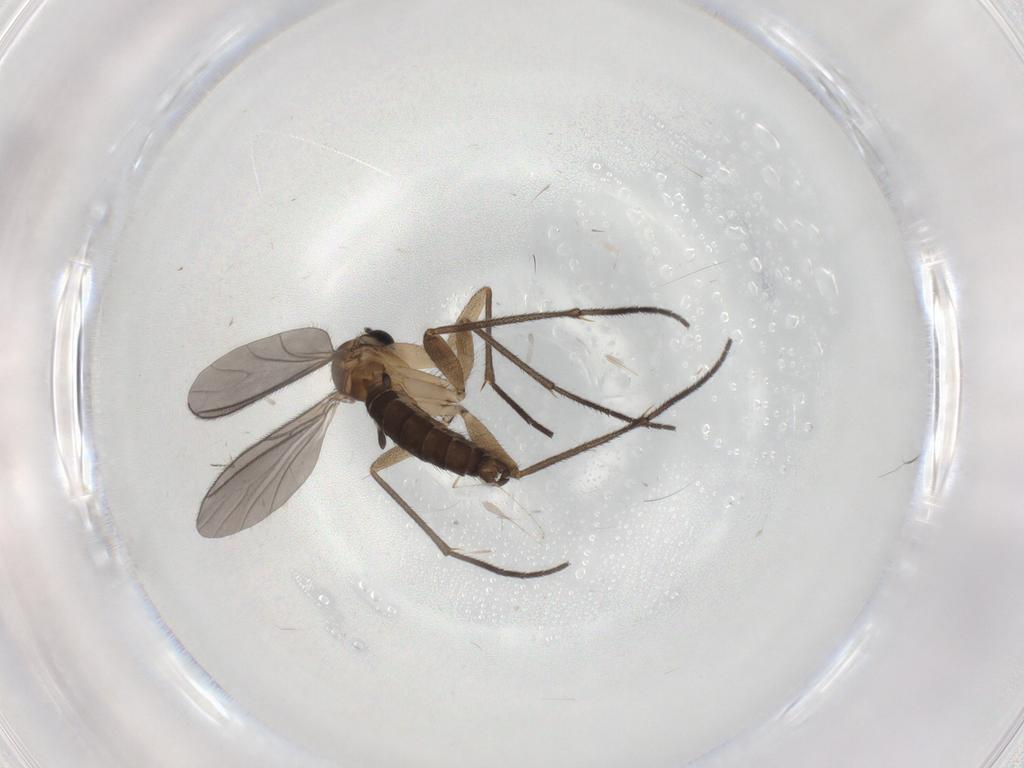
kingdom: Animalia
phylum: Arthropoda
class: Insecta
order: Diptera
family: Sciaridae
